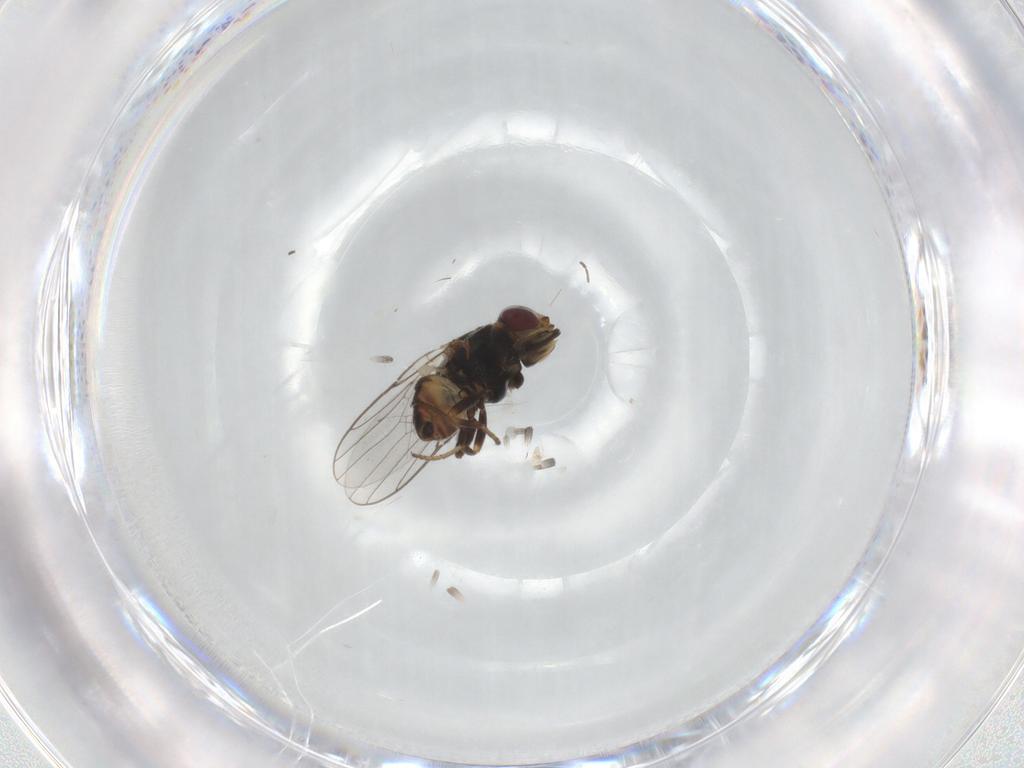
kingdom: Animalia
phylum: Arthropoda
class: Insecta
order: Diptera
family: Chloropidae
